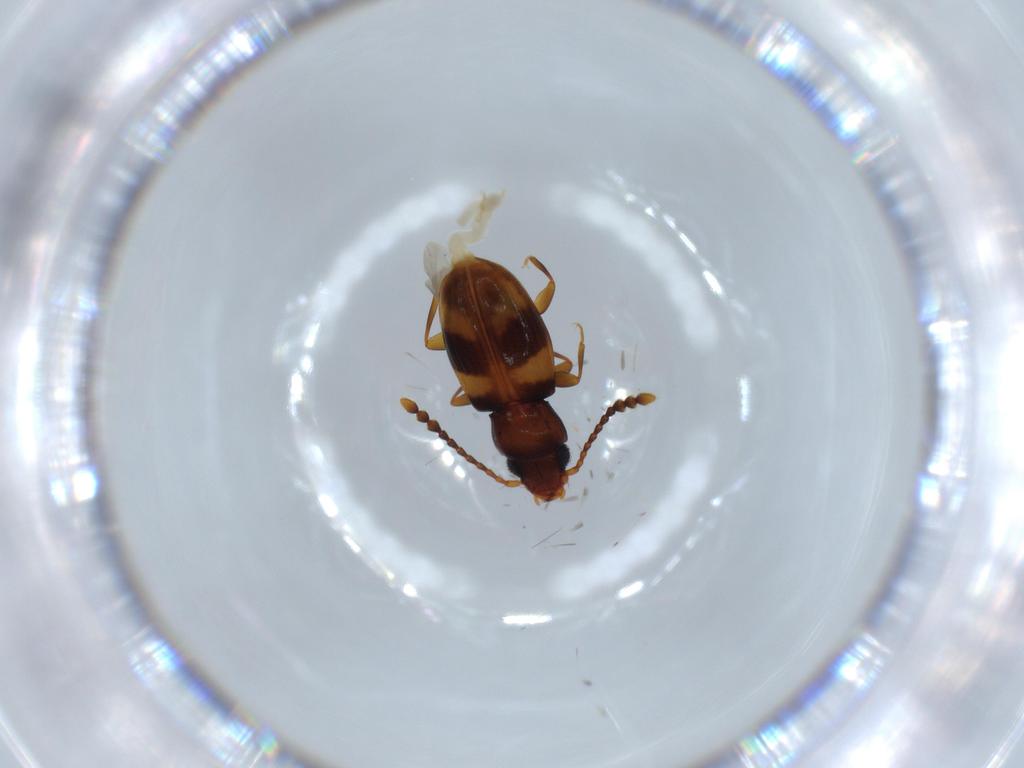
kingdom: Animalia
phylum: Arthropoda
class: Insecta
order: Coleoptera
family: Laemophloeidae
